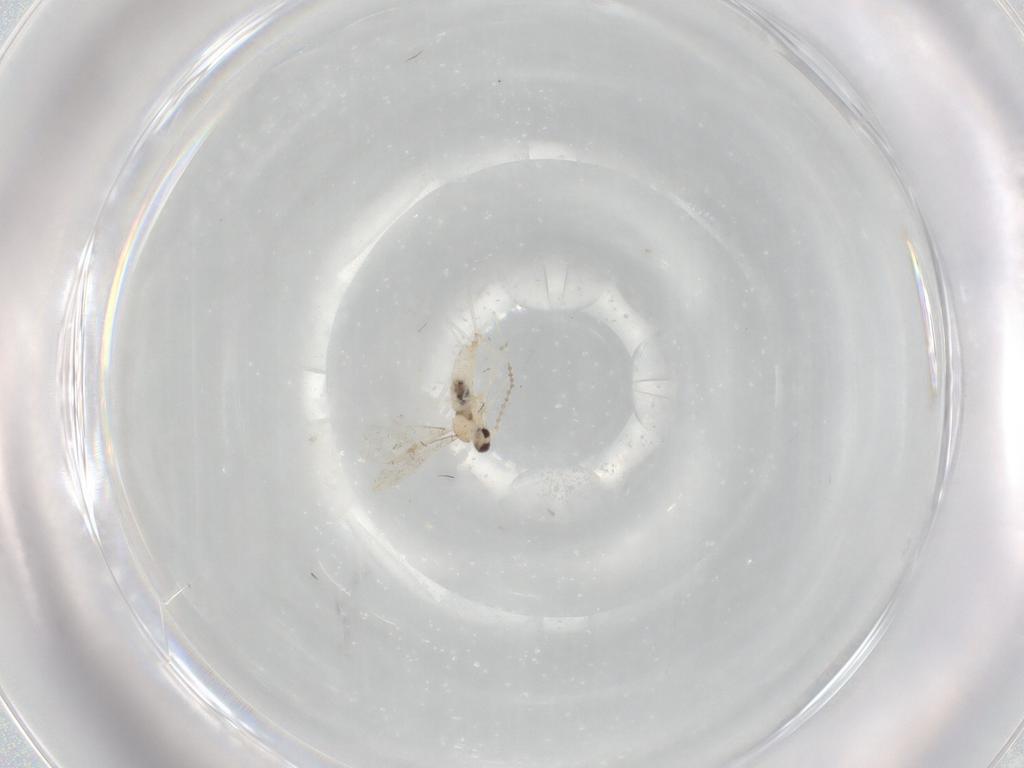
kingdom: Animalia
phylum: Arthropoda
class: Insecta
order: Diptera
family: Cecidomyiidae
